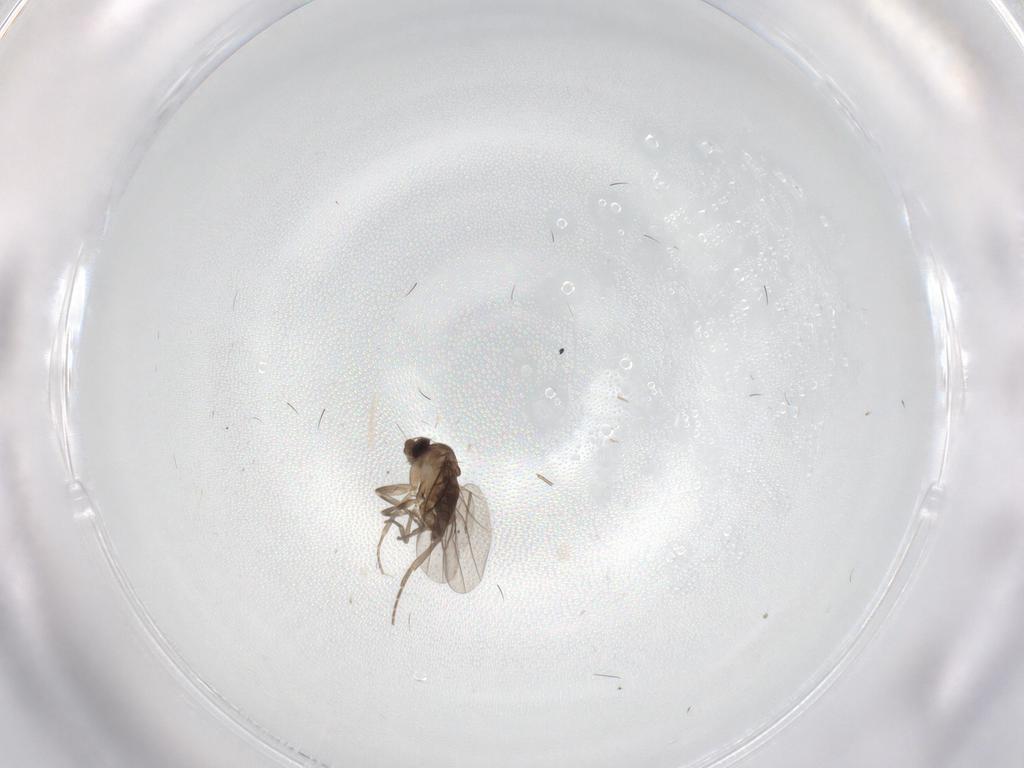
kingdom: Animalia
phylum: Arthropoda
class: Insecta
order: Diptera
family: Phoridae
